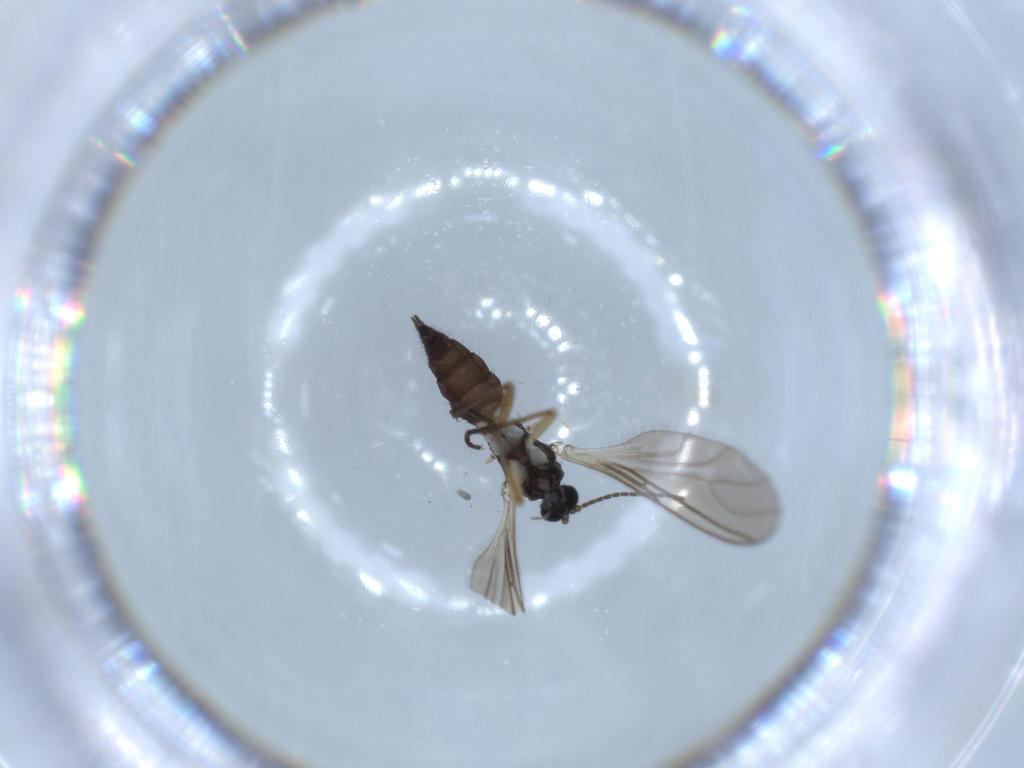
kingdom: Animalia
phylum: Arthropoda
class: Insecta
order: Diptera
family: Sciaridae
